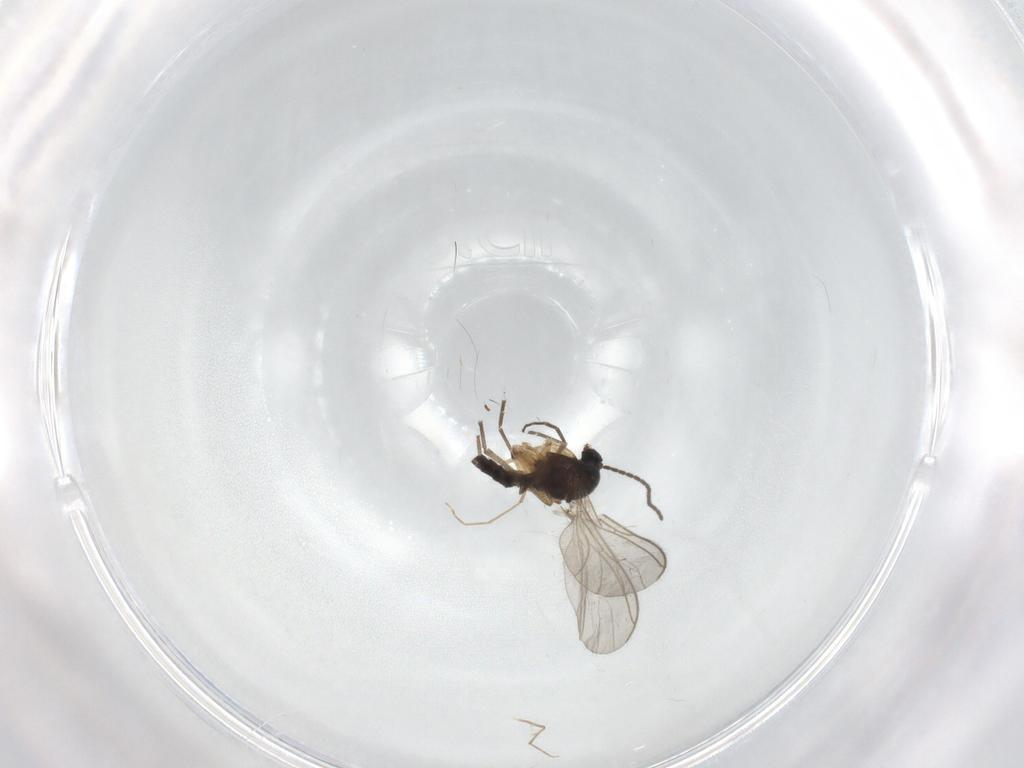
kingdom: Animalia
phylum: Arthropoda
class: Insecta
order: Diptera
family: Sciaridae
